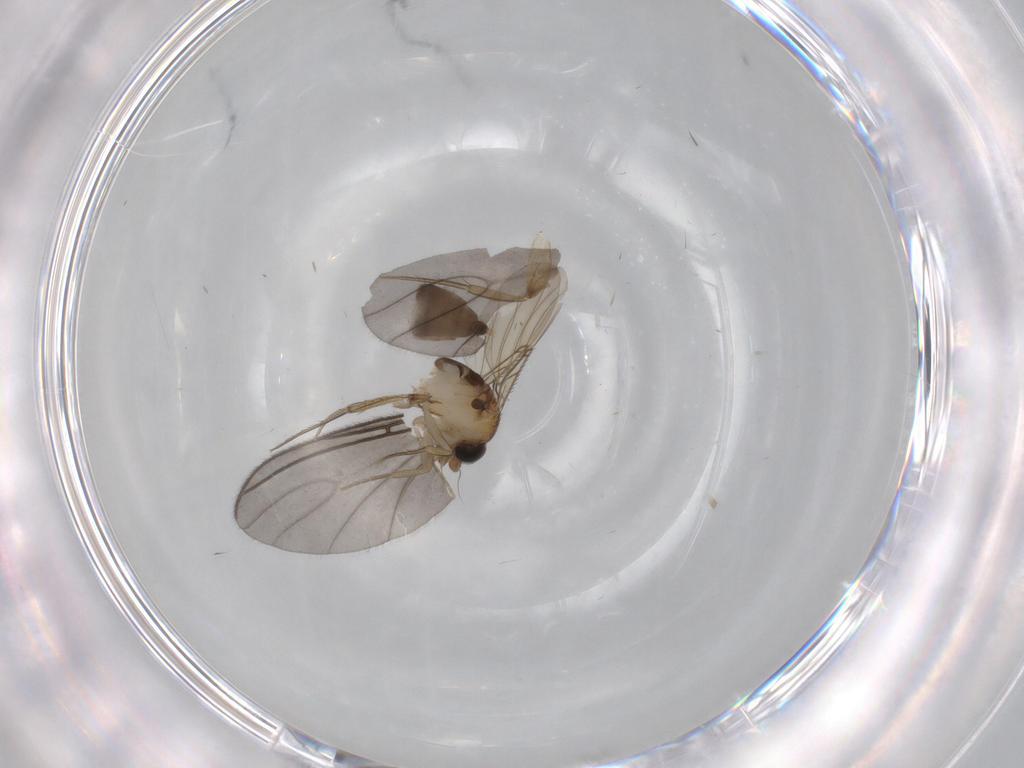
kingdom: Animalia
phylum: Arthropoda
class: Insecta
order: Diptera
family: Phoridae
